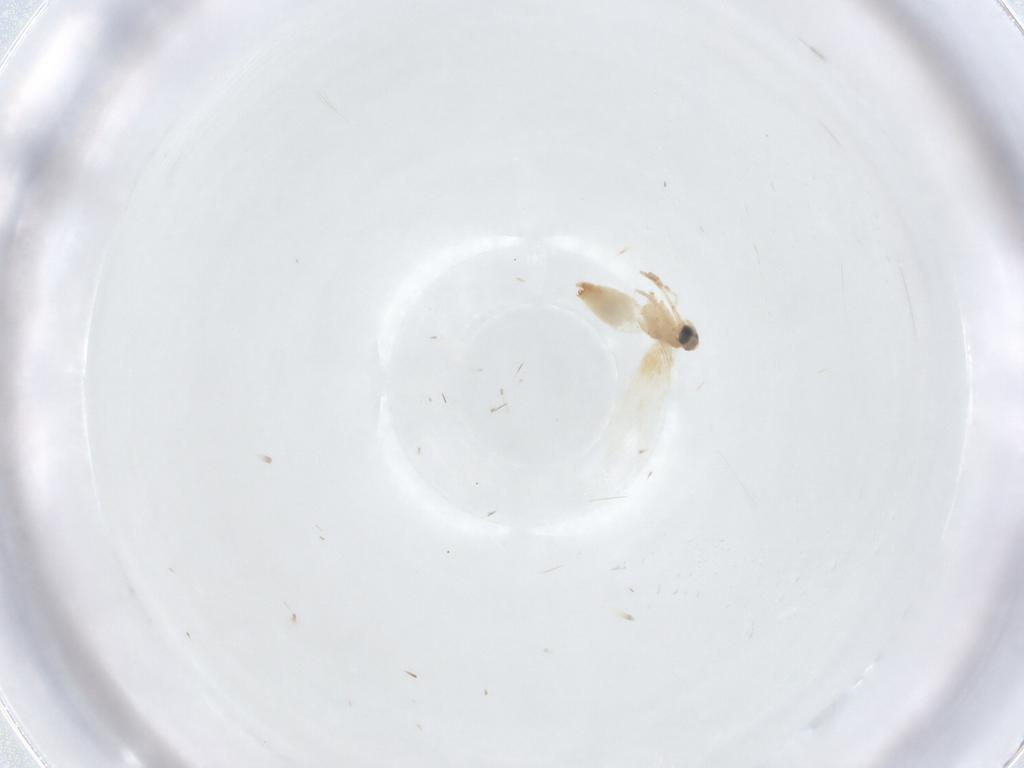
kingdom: Animalia
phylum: Arthropoda
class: Insecta
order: Lepidoptera
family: Crambidae
